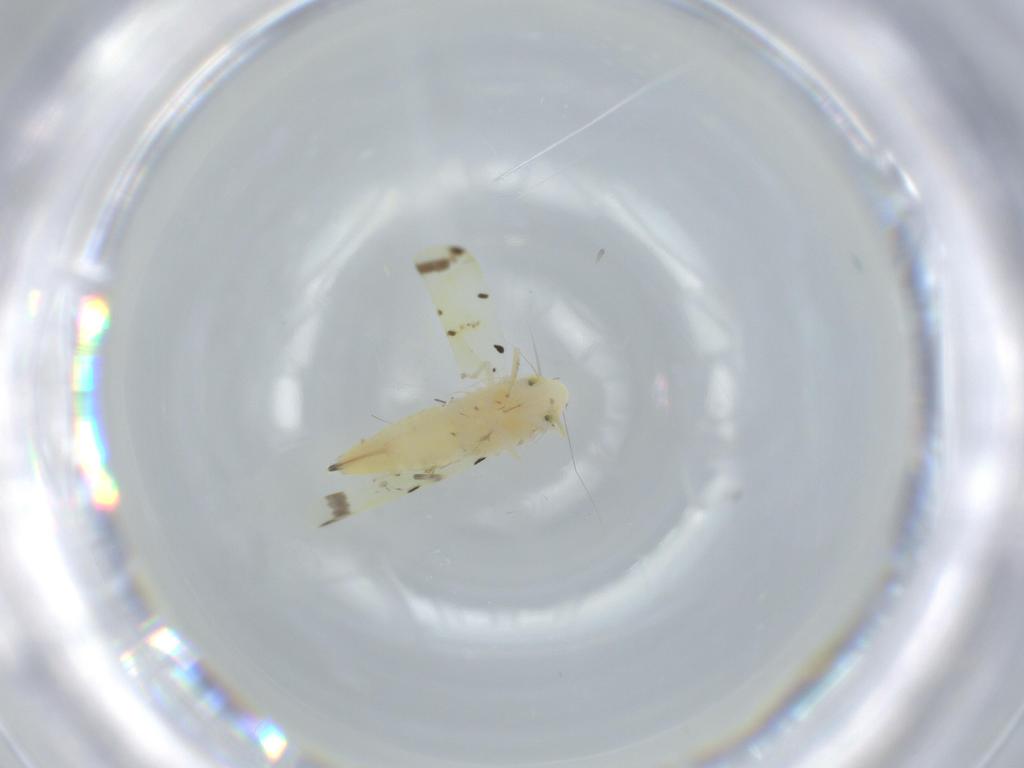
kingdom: Animalia
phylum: Arthropoda
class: Insecta
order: Hemiptera
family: Cicadellidae
